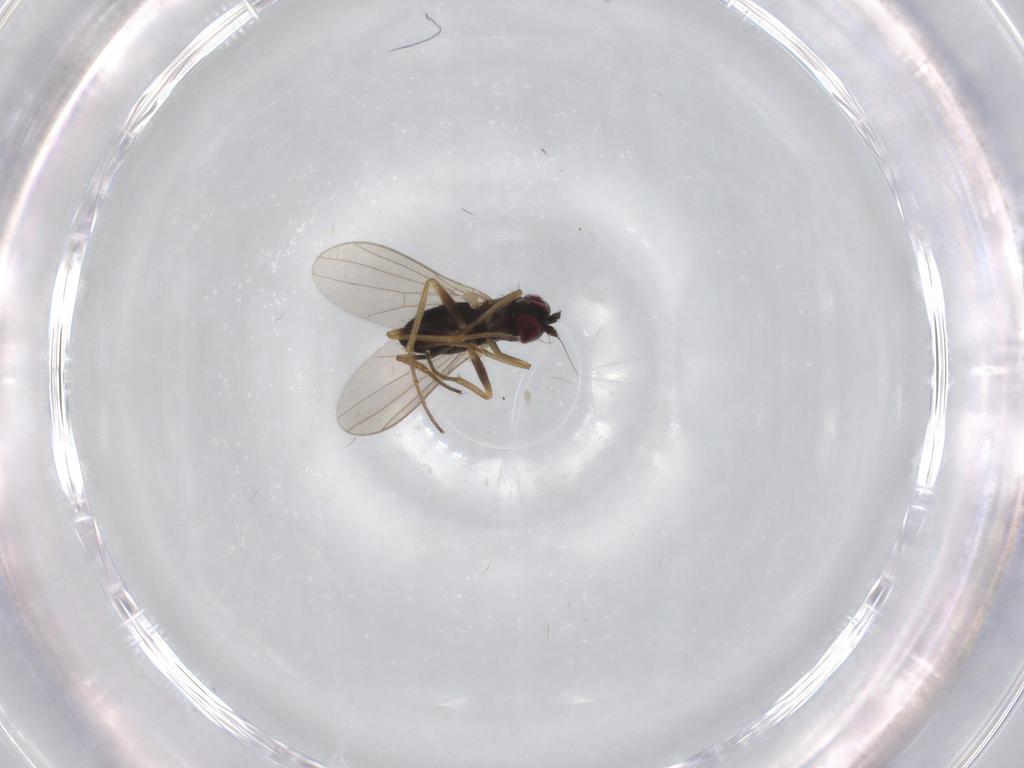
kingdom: Animalia
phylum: Arthropoda
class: Insecta
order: Diptera
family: Dolichopodidae
